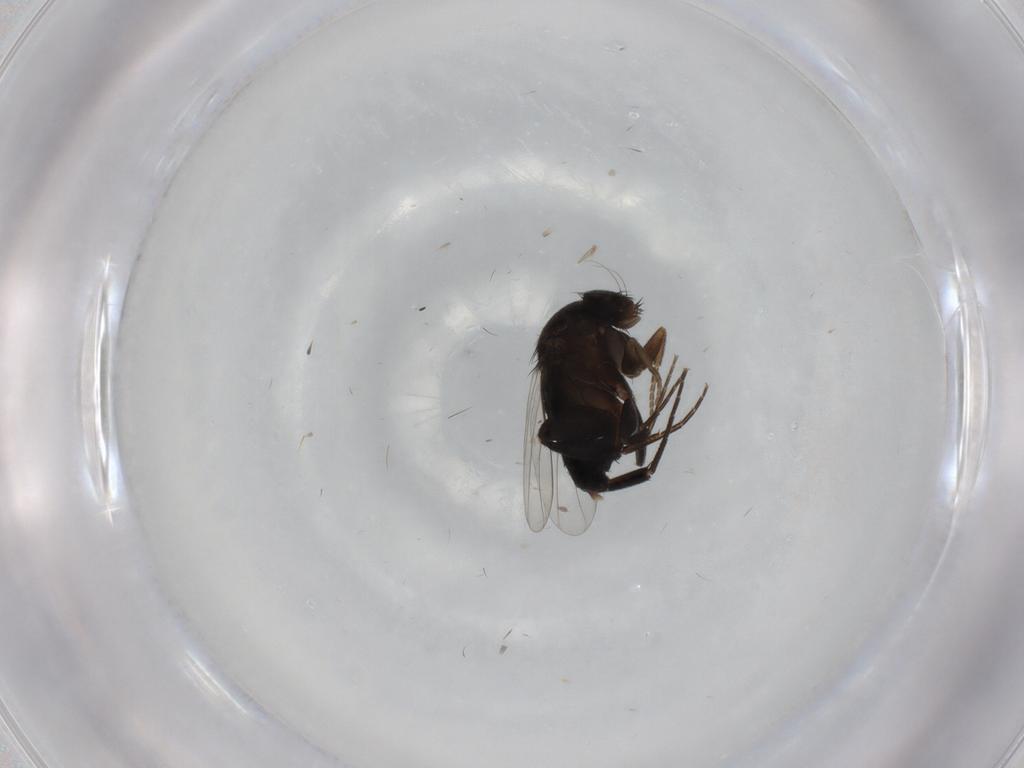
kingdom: Animalia
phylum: Arthropoda
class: Insecta
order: Diptera
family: Phoridae
